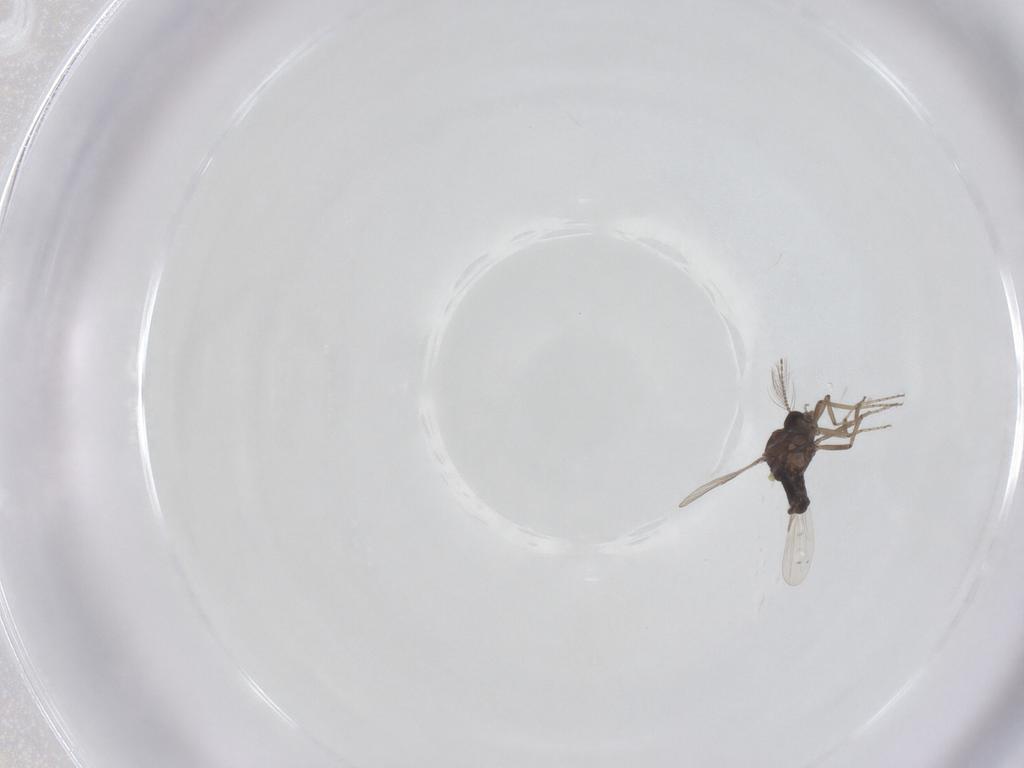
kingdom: Animalia
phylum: Arthropoda
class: Insecta
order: Diptera
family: Ceratopogonidae
